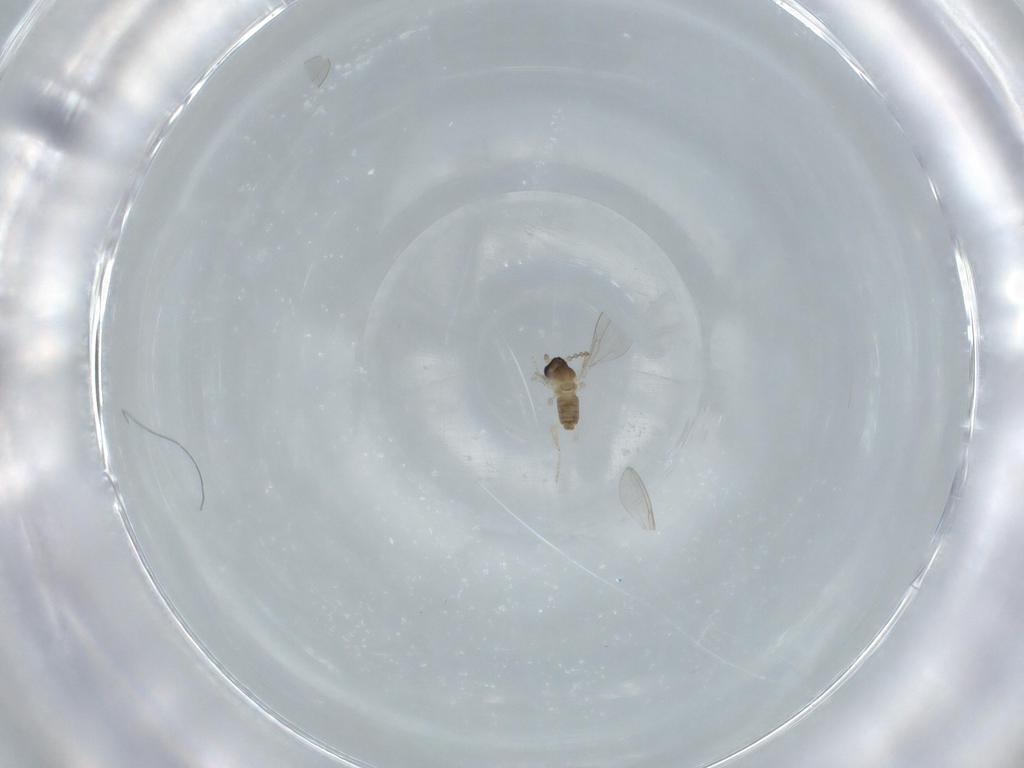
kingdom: Animalia
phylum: Arthropoda
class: Insecta
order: Diptera
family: Cecidomyiidae
